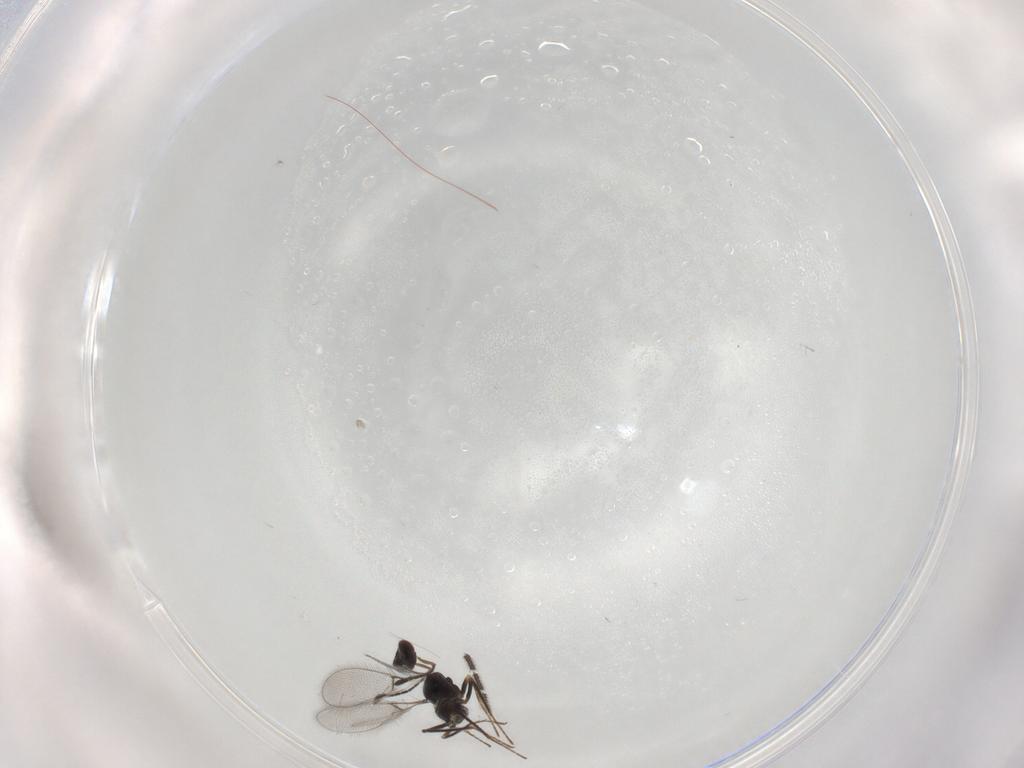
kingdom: Animalia
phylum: Arthropoda
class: Insecta
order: Hymenoptera
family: Mymaridae
